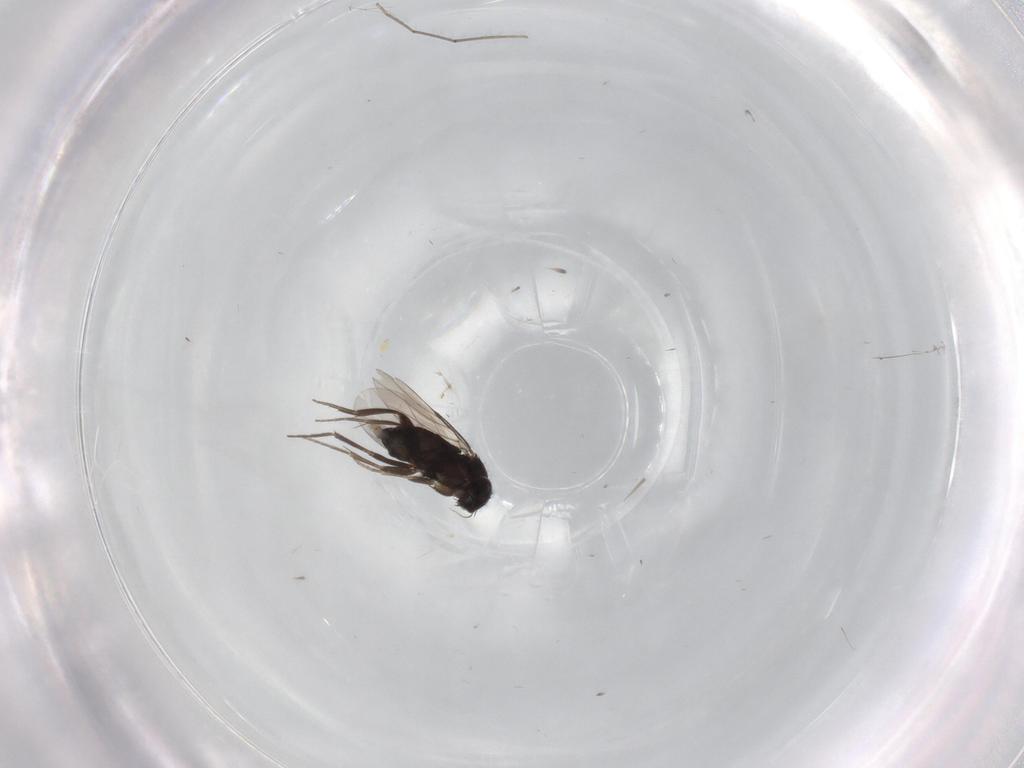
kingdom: Animalia
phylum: Arthropoda
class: Insecta
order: Diptera
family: Phoridae
